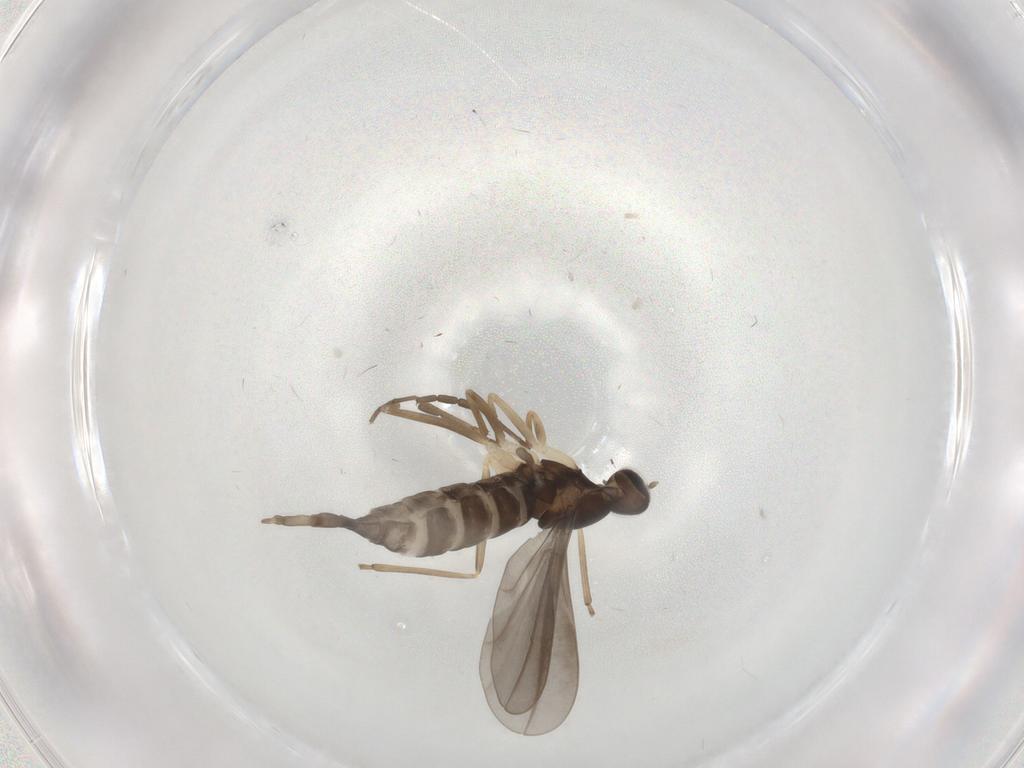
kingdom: Animalia
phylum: Arthropoda
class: Insecta
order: Diptera
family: Cecidomyiidae
